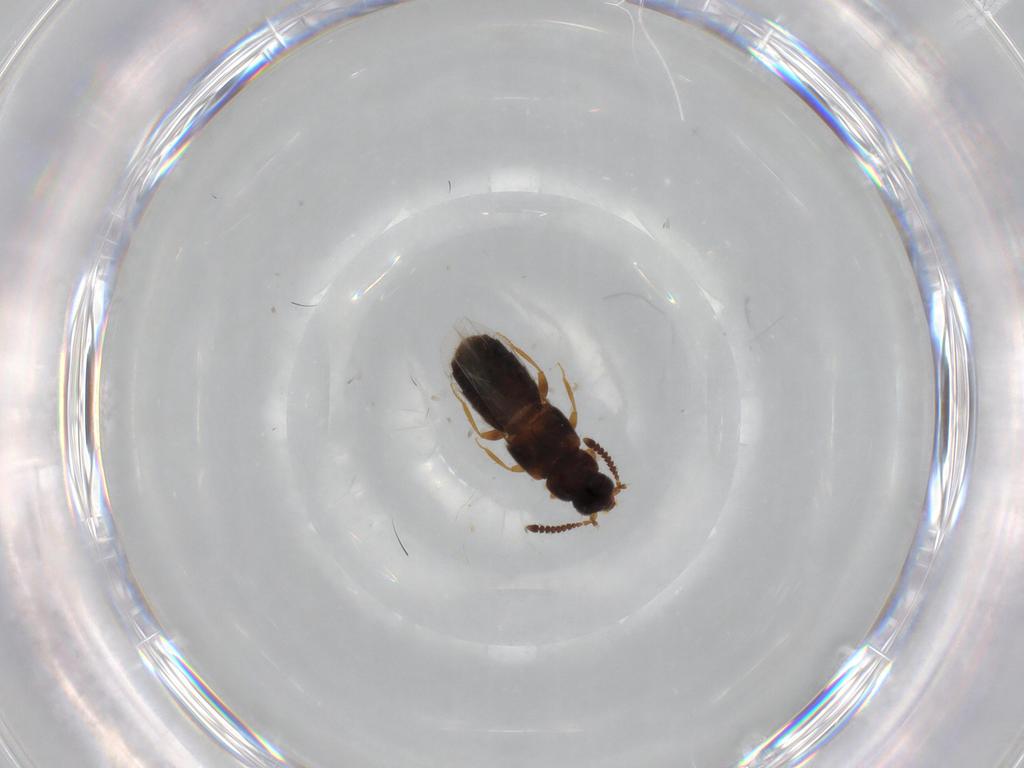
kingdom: Animalia
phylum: Arthropoda
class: Insecta
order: Coleoptera
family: Staphylinidae
